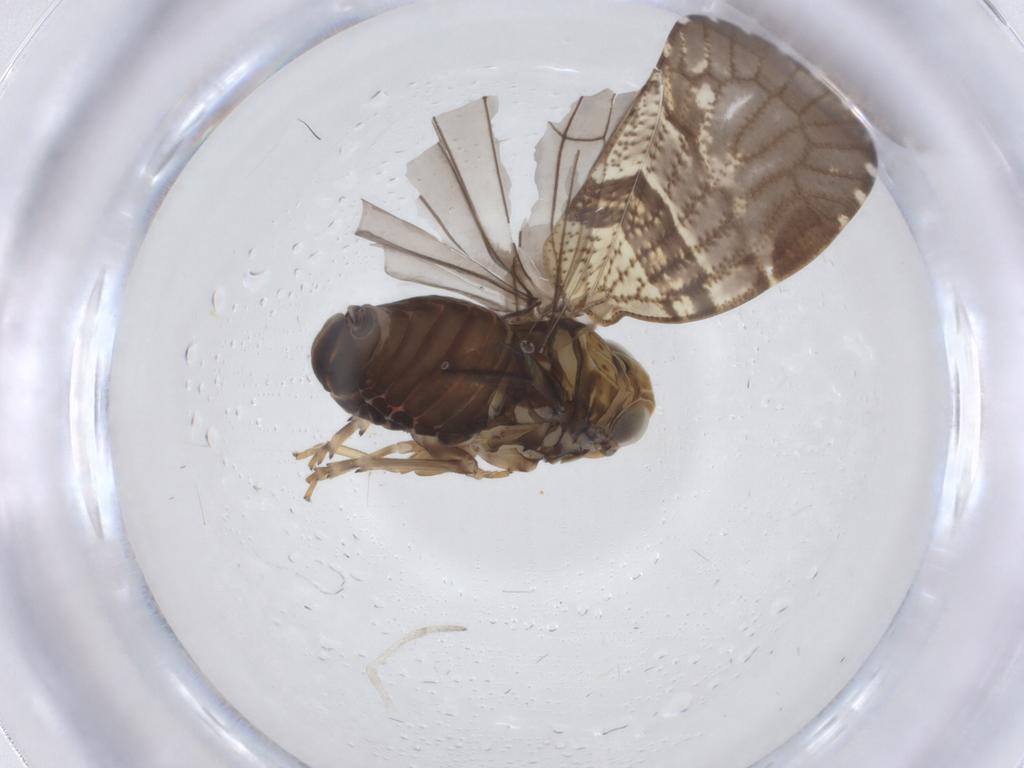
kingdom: Animalia
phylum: Arthropoda
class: Insecta
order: Hemiptera
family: Cixiidae
